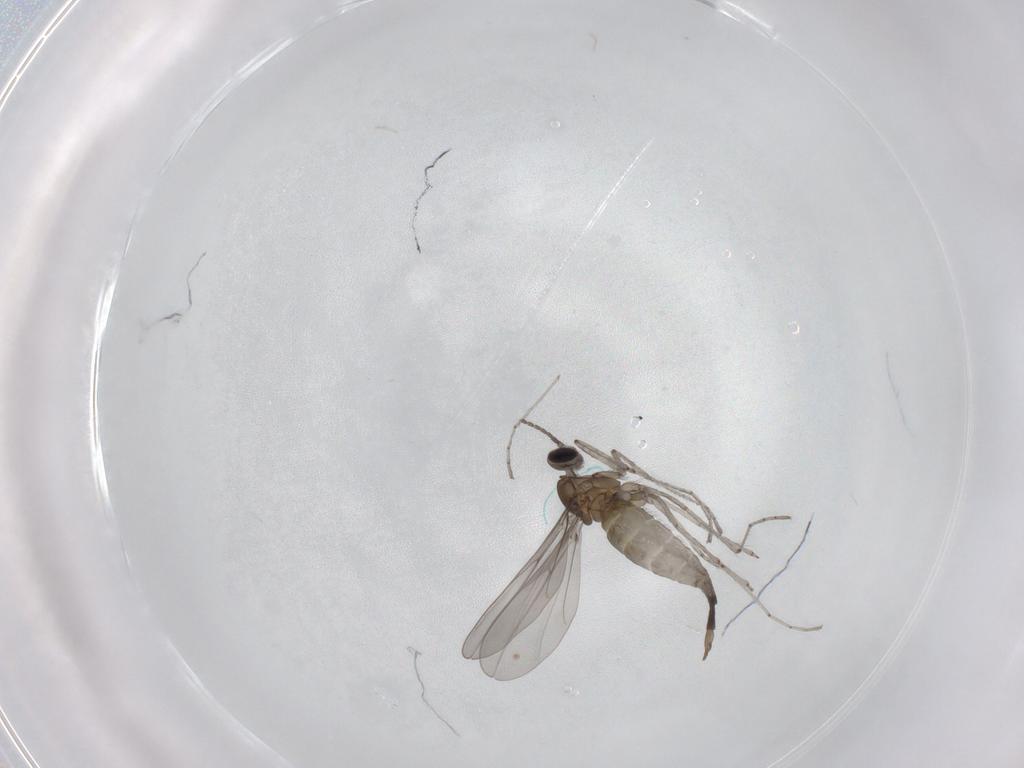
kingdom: Animalia
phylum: Arthropoda
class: Insecta
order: Diptera
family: Cecidomyiidae
